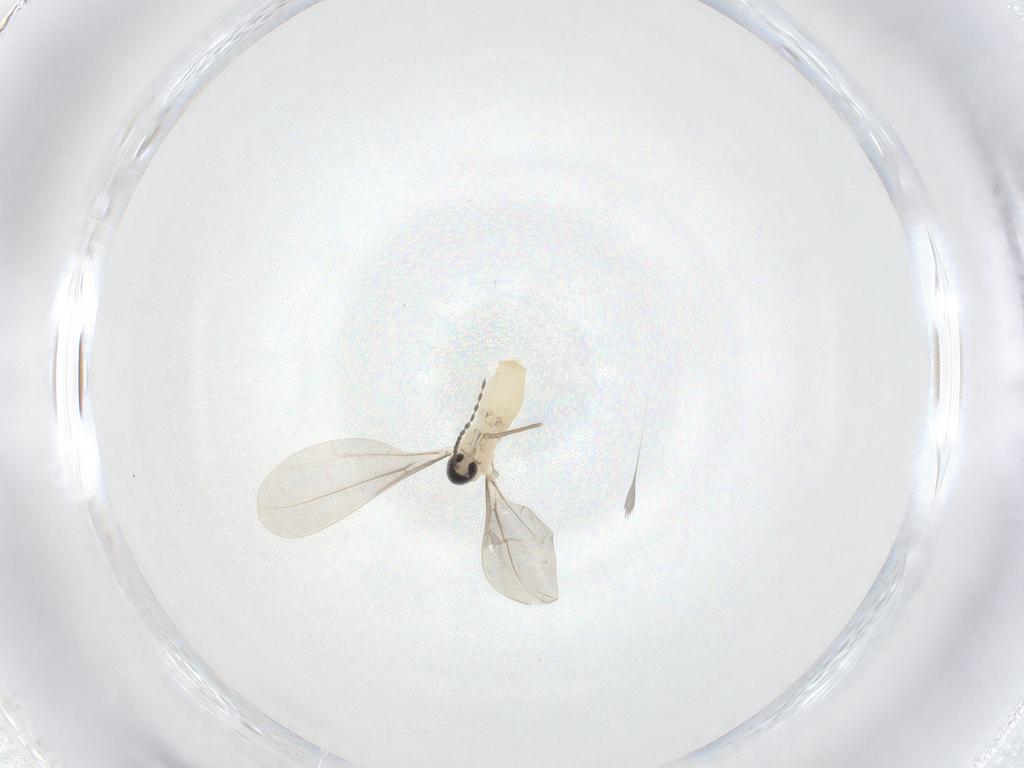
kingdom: Animalia
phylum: Arthropoda
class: Insecta
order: Diptera
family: Cecidomyiidae
